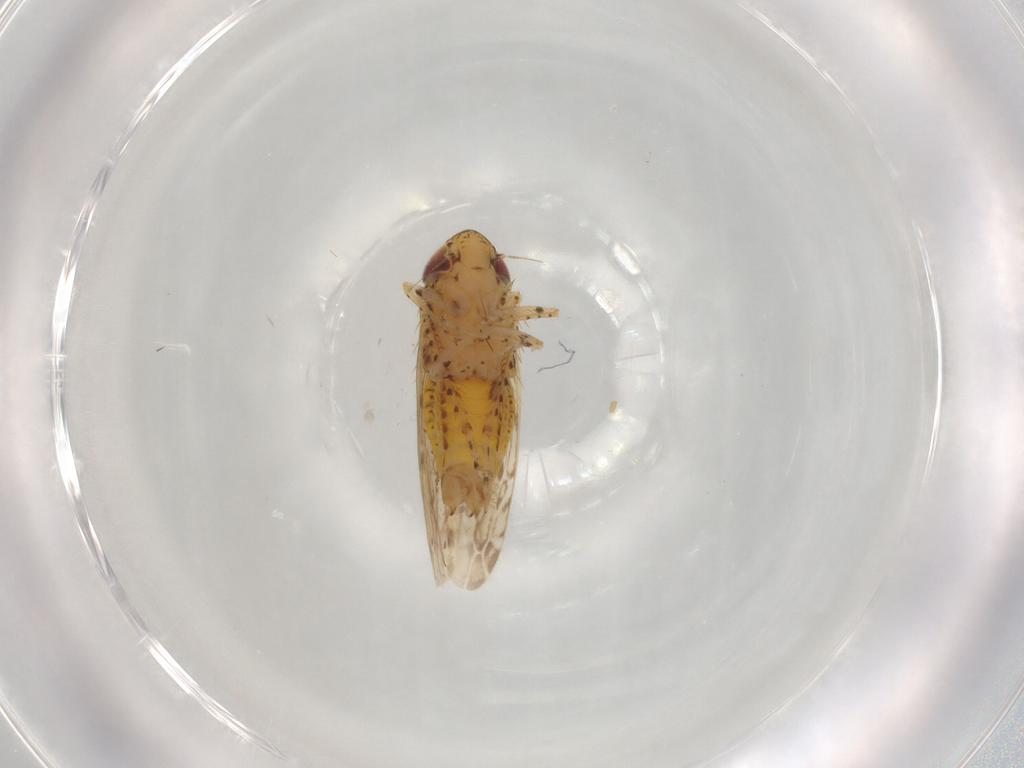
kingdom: Animalia
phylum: Arthropoda
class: Insecta
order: Hemiptera
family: Cicadellidae
